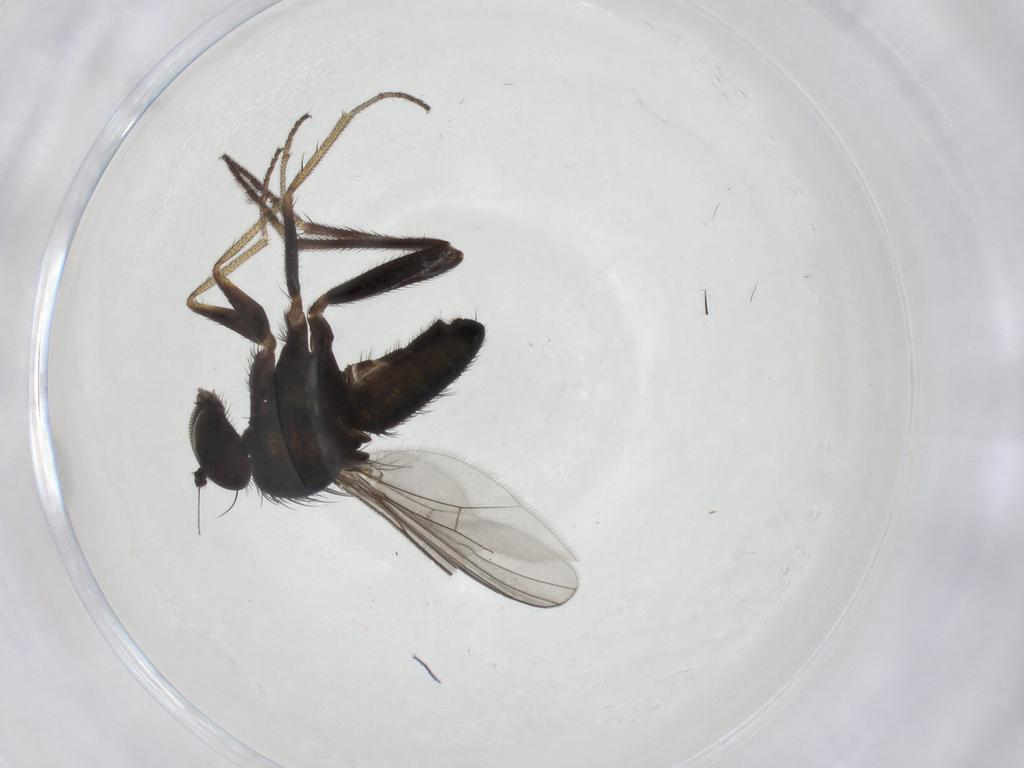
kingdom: Animalia
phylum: Arthropoda
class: Insecta
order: Diptera
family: Dolichopodidae
